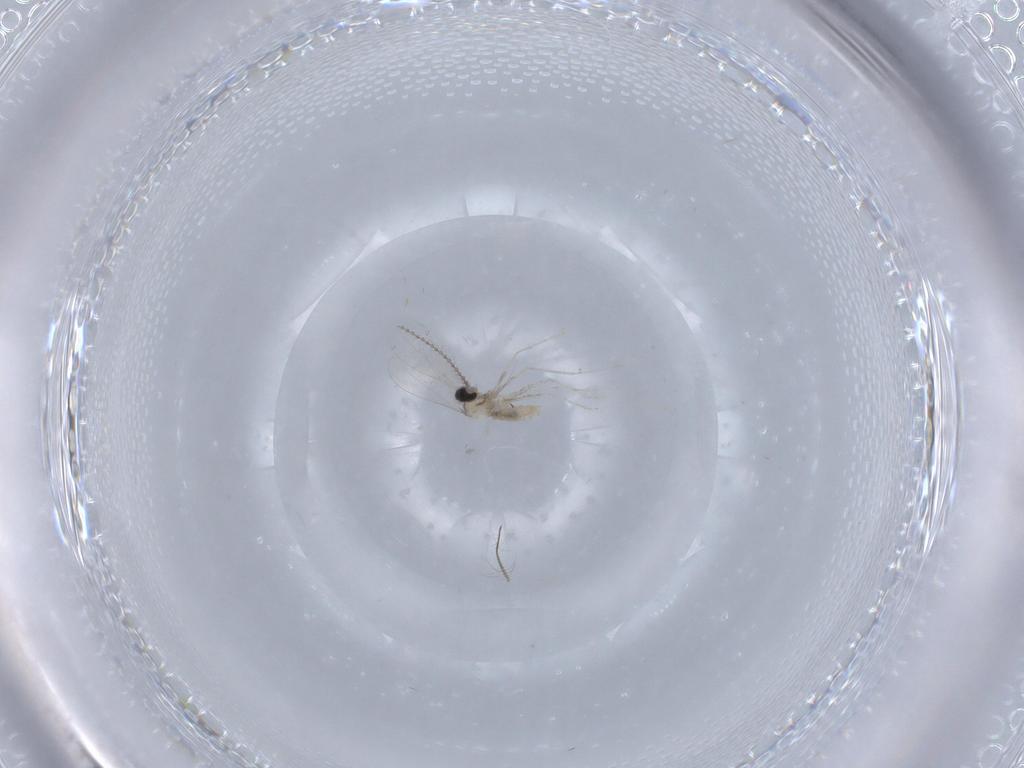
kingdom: Animalia
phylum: Arthropoda
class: Insecta
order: Diptera
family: Chironomidae
